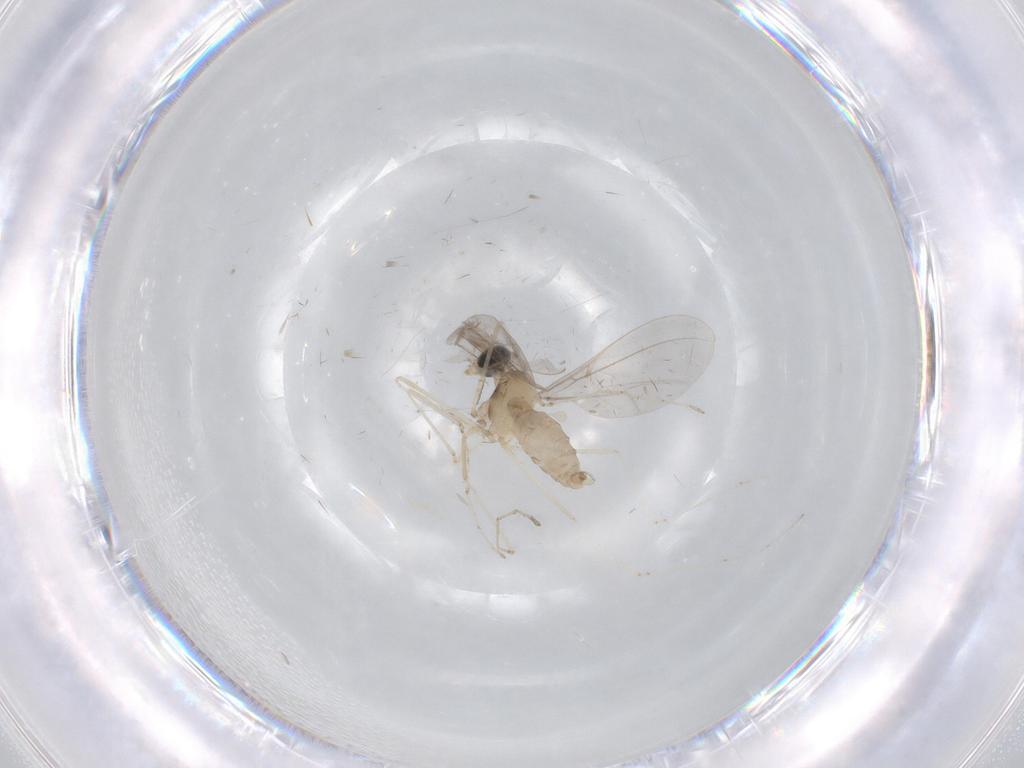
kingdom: Animalia
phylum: Arthropoda
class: Insecta
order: Diptera
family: Cecidomyiidae
